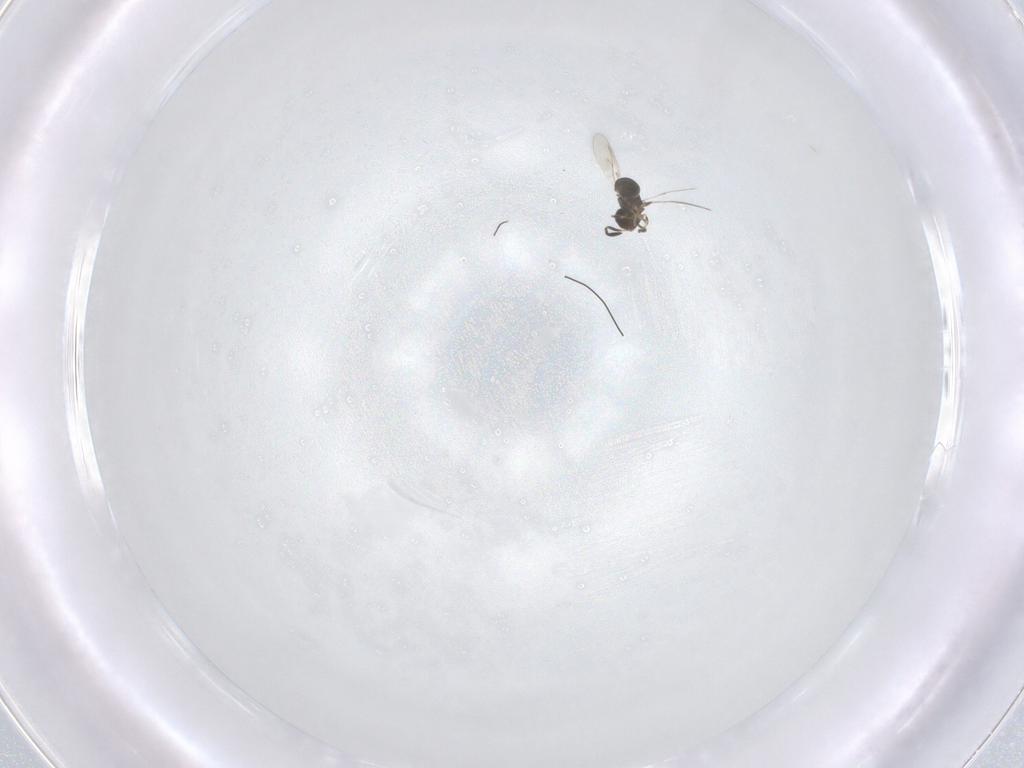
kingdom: Animalia
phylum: Arthropoda
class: Insecta
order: Hymenoptera
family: Scelionidae
